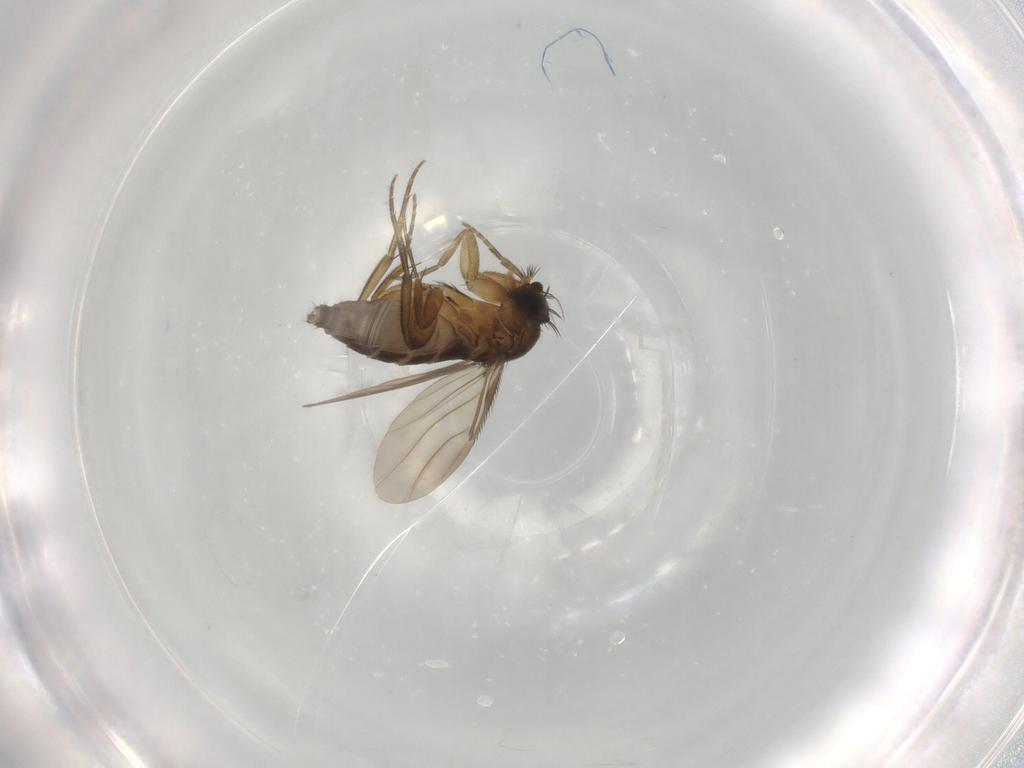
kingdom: Animalia
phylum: Arthropoda
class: Insecta
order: Diptera
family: Phoridae
